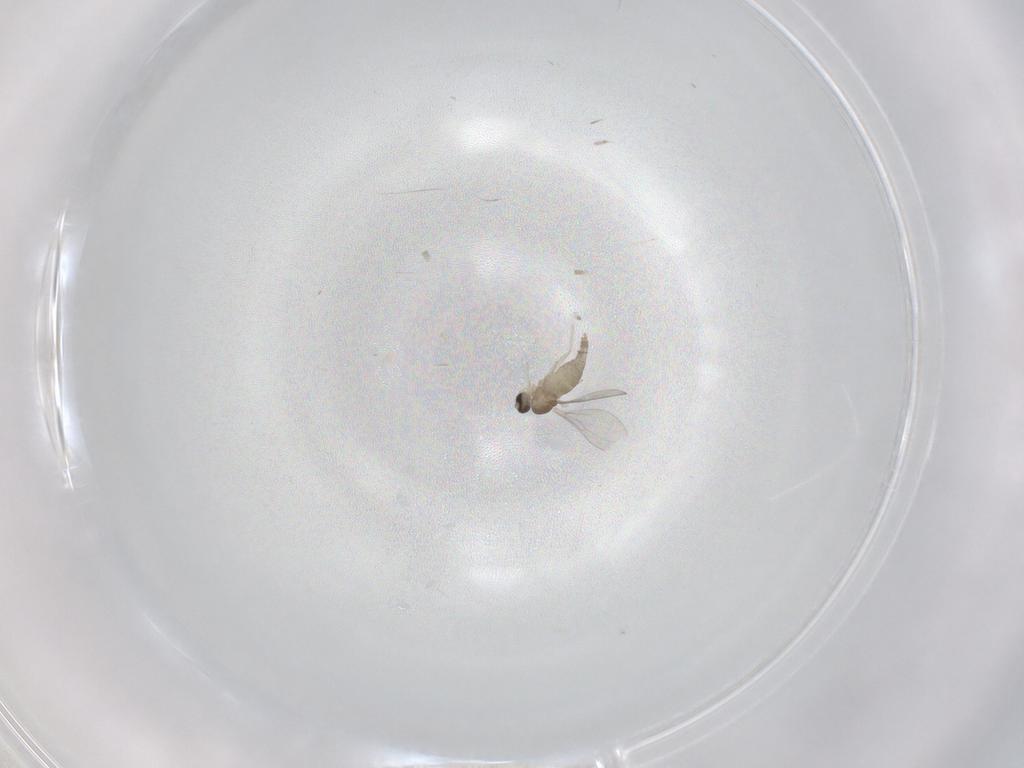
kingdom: Animalia
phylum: Arthropoda
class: Insecta
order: Diptera
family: Cecidomyiidae
